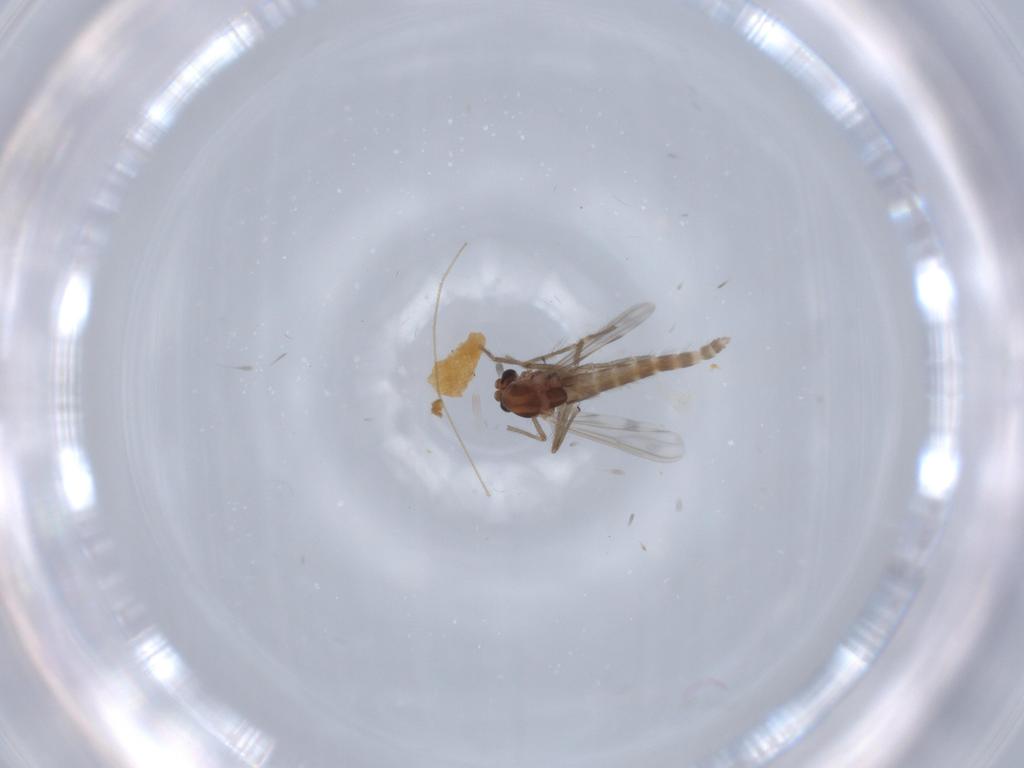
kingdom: Animalia
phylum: Arthropoda
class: Insecta
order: Diptera
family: Chironomidae
